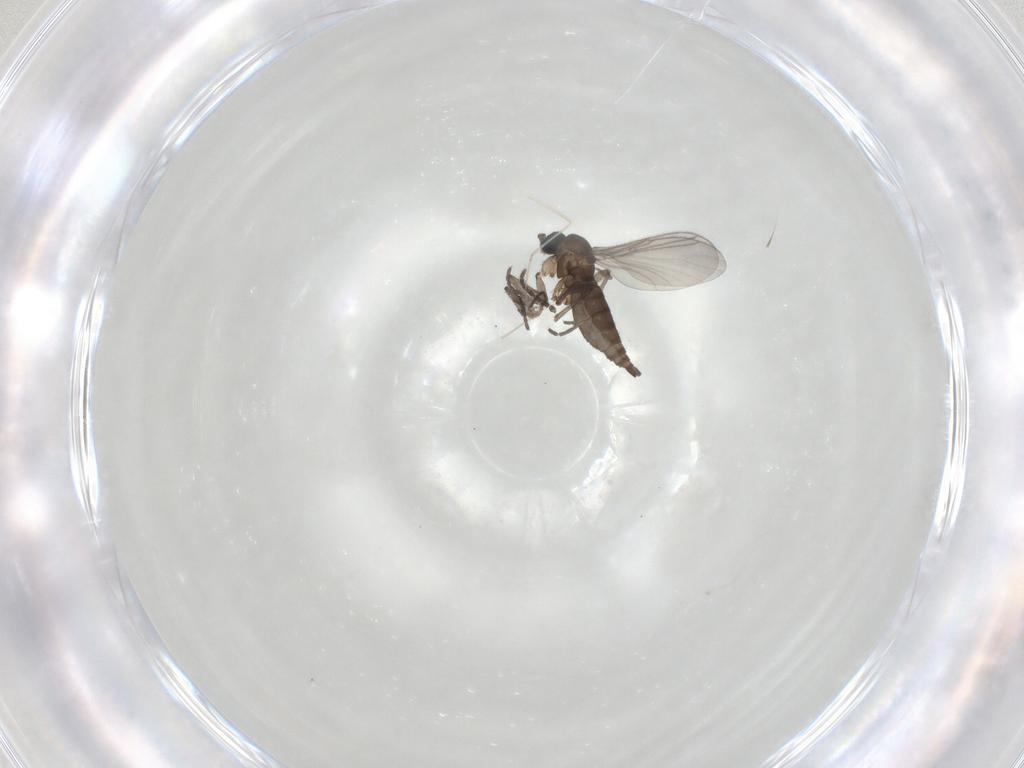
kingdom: Animalia
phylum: Arthropoda
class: Insecta
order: Diptera
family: Sciaridae
